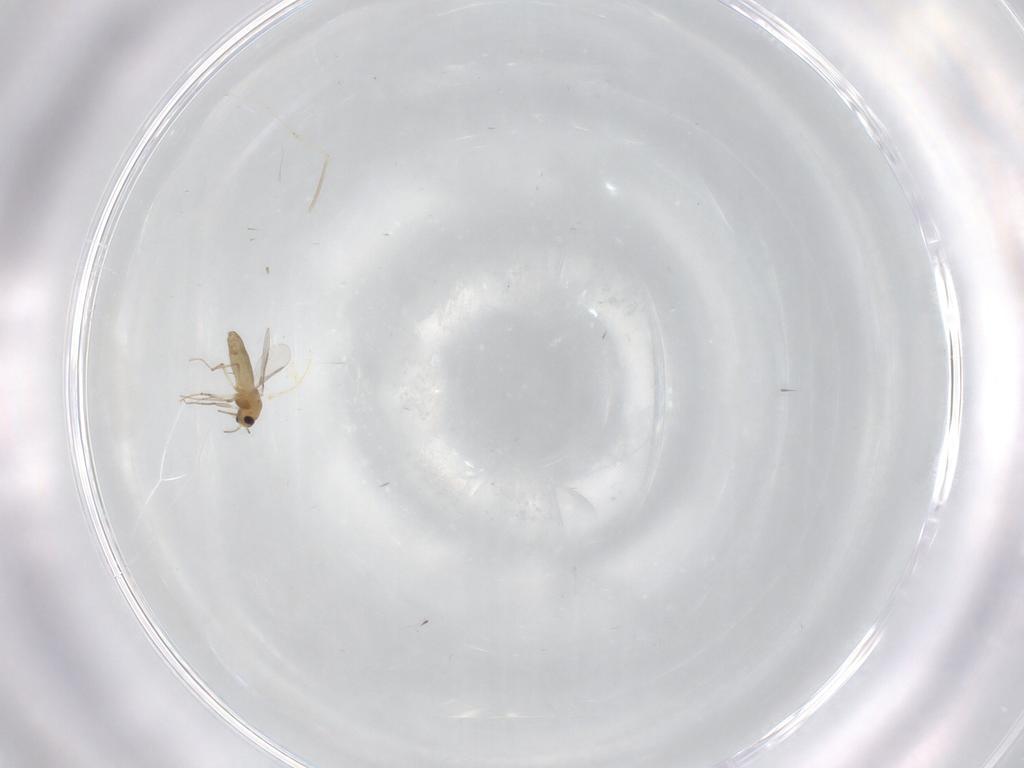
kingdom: Animalia
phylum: Arthropoda
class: Insecta
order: Diptera
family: Chironomidae
